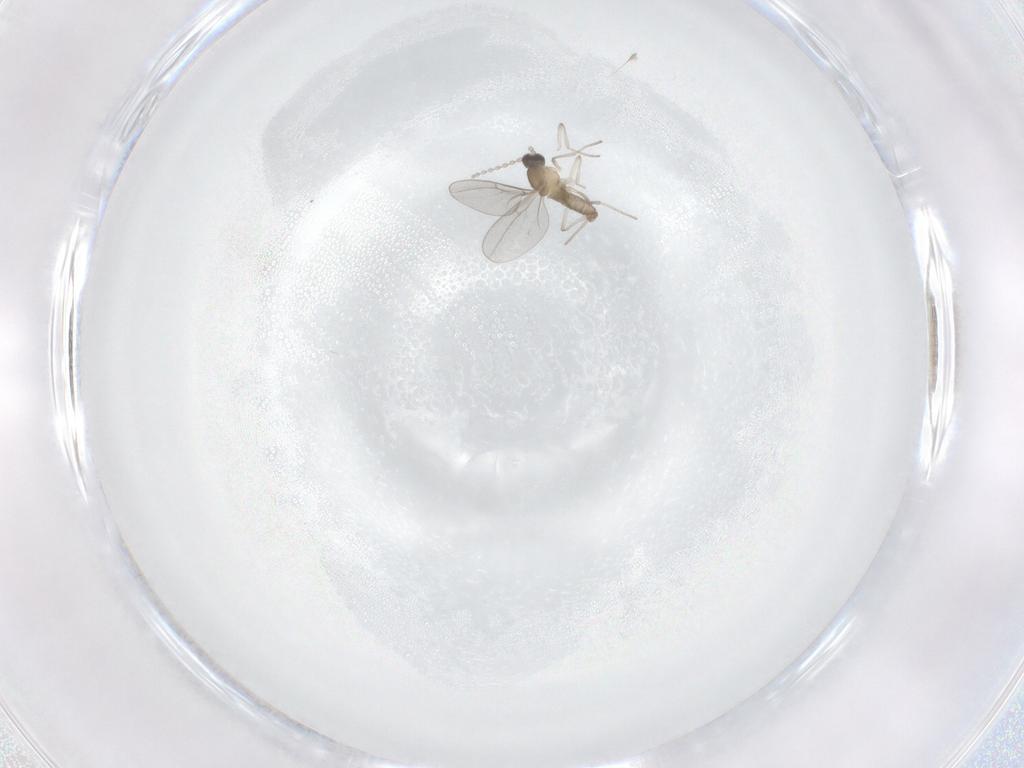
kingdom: Animalia
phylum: Arthropoda
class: Insecta
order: Diptera
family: Cecidomyiidae
